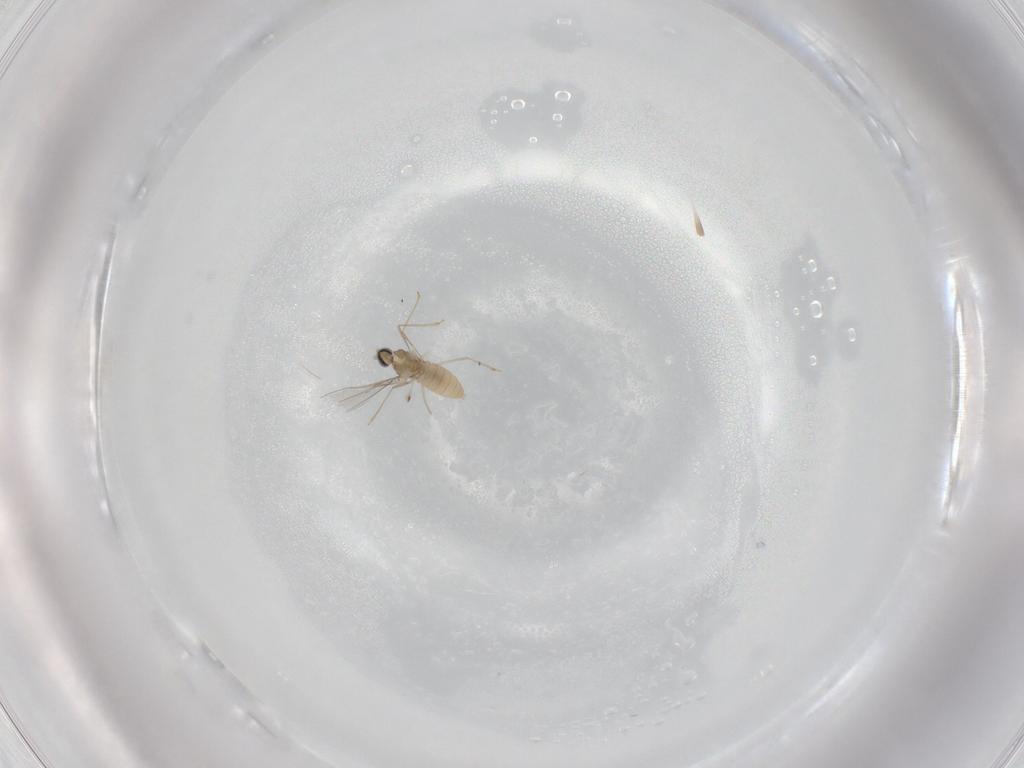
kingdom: Animalia
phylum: Arthropoda
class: Insecta
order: Diptera
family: Cecidomyiidae
